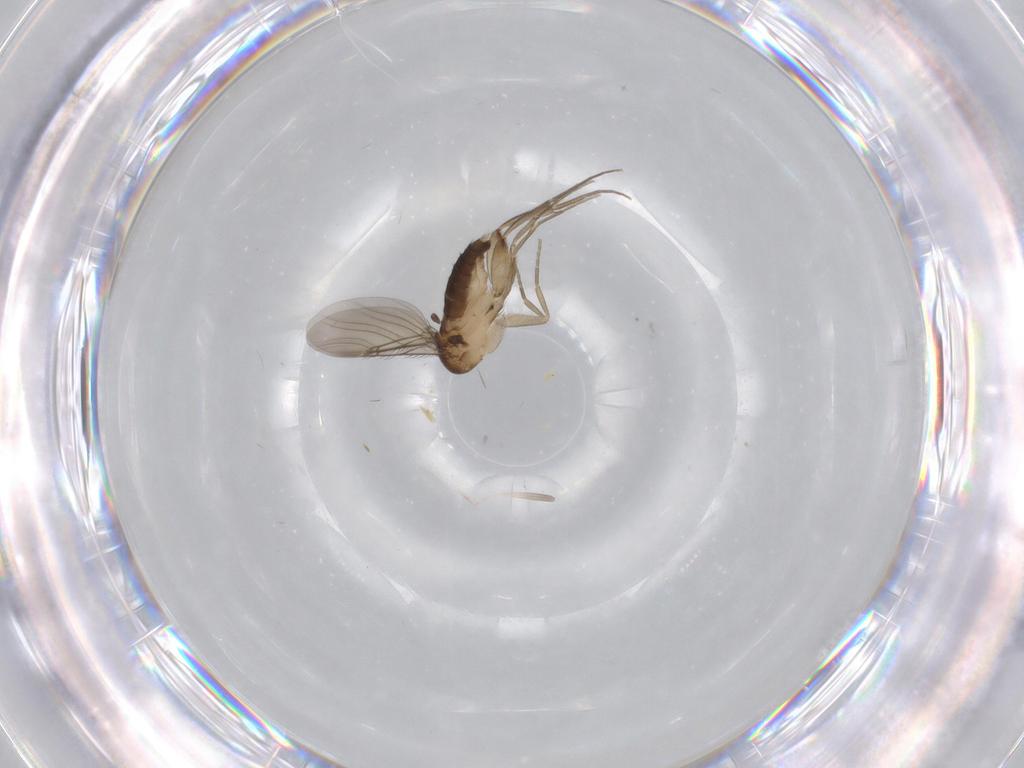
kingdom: Animalia
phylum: Arthropoda
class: Insecta
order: Diptera
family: Phoridae
